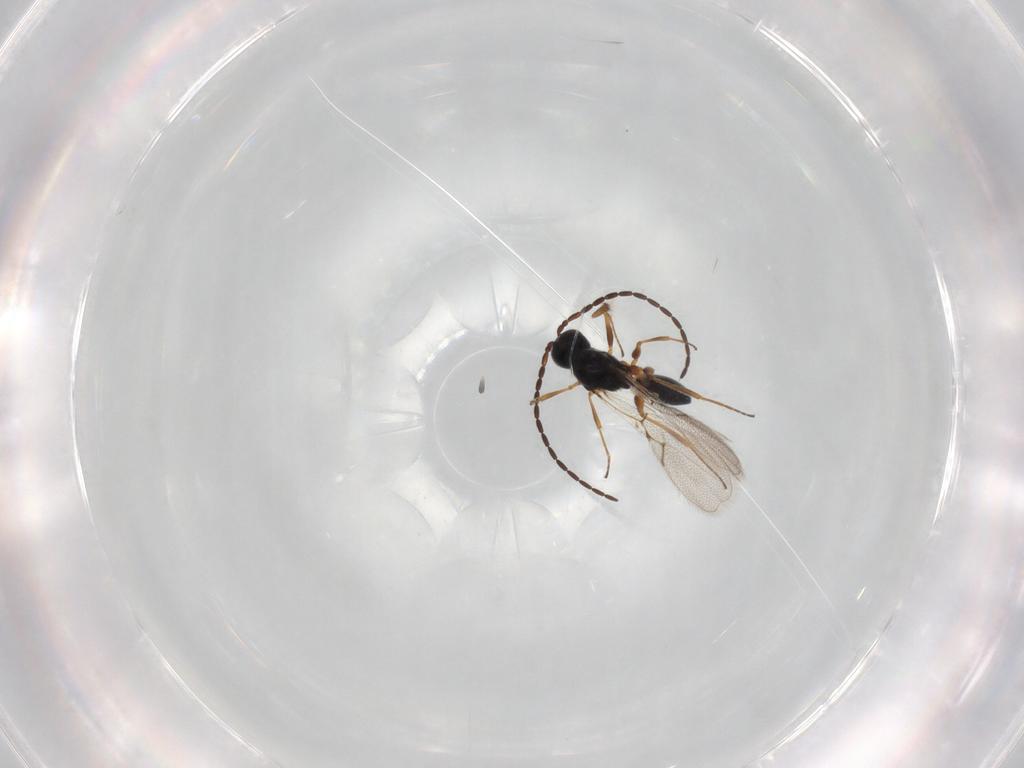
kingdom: Animalia
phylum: Arthropoda
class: Insecta
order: Hymenoptera
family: Figitidae
